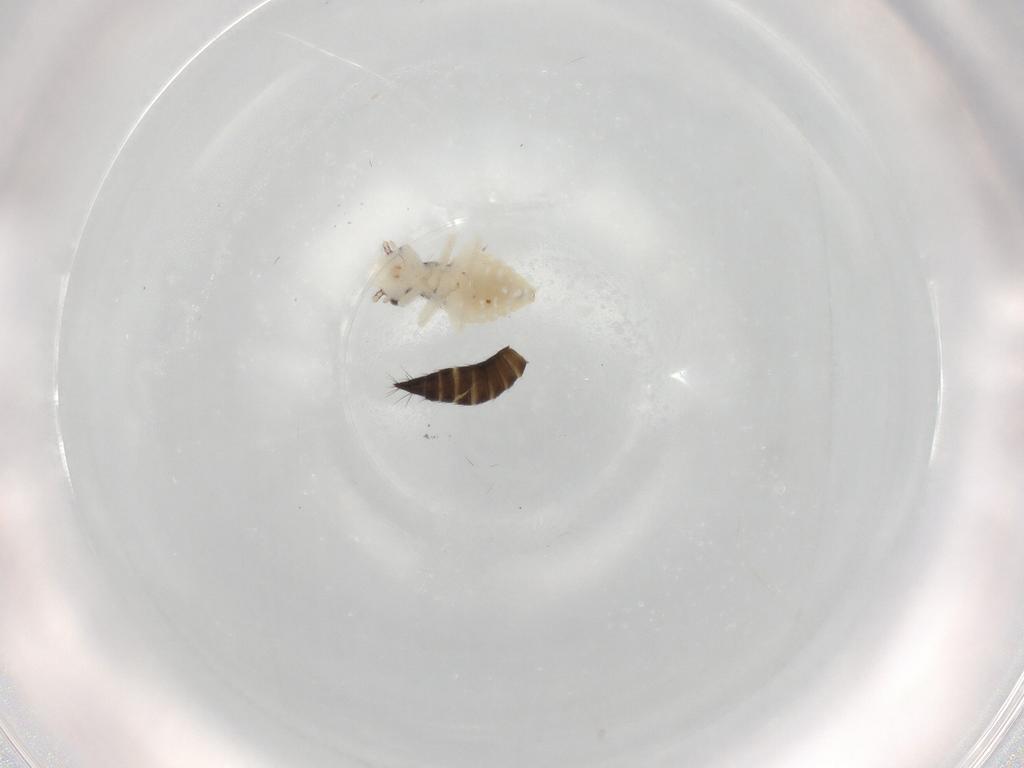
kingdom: Animalia
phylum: Arthropoda
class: Insecta
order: Psocodea
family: Philotarsidae
